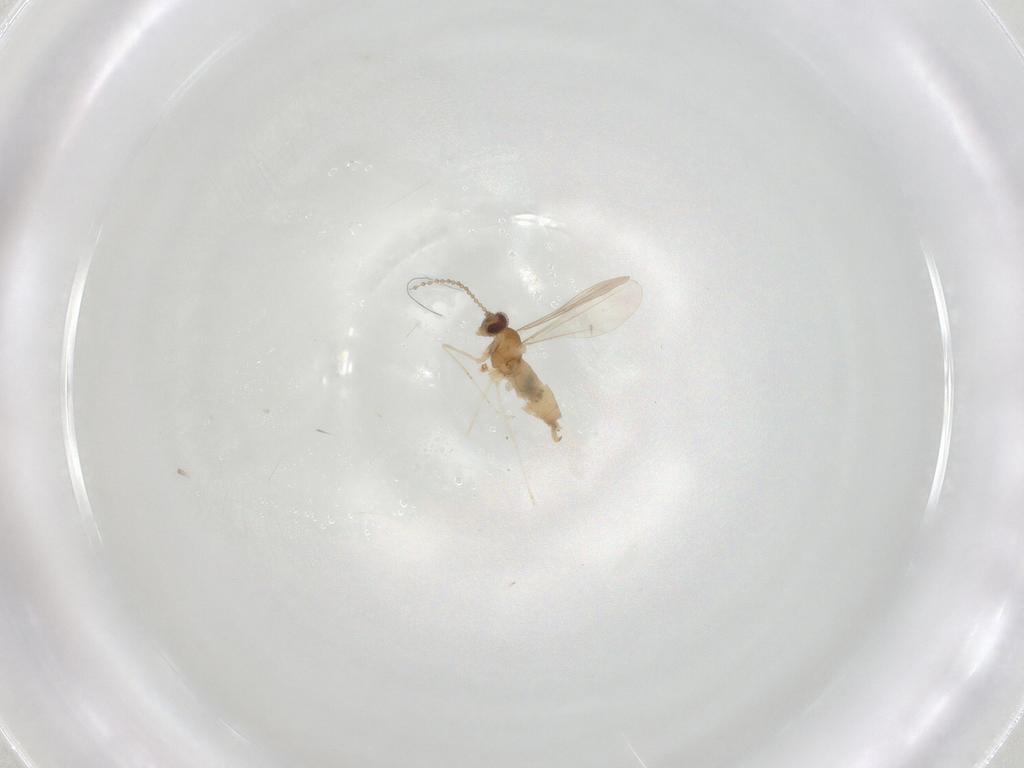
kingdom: Animalia
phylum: Arthropoda
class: Insecta
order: Diptera
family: Cecidomyiidae
